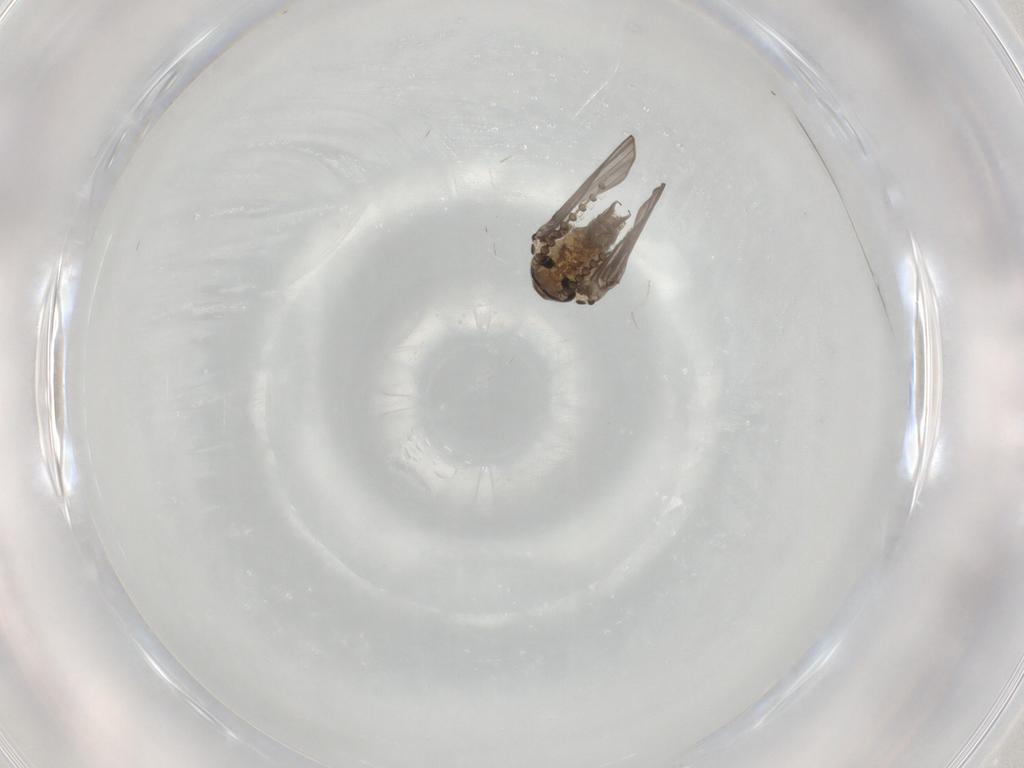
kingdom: Animalia
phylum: Arthropoda
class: Insecta
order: Diptera
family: Cecidomyiidae
